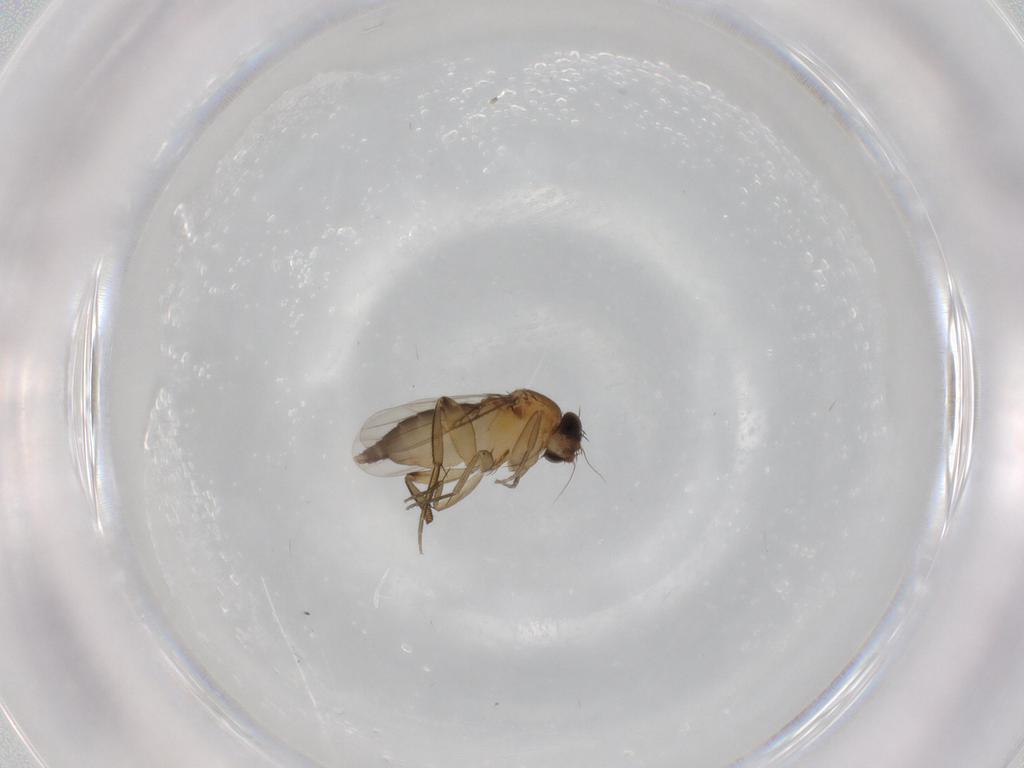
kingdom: Animalia
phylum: Arthropoda
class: Insecta
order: Diptera
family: Phoridae
